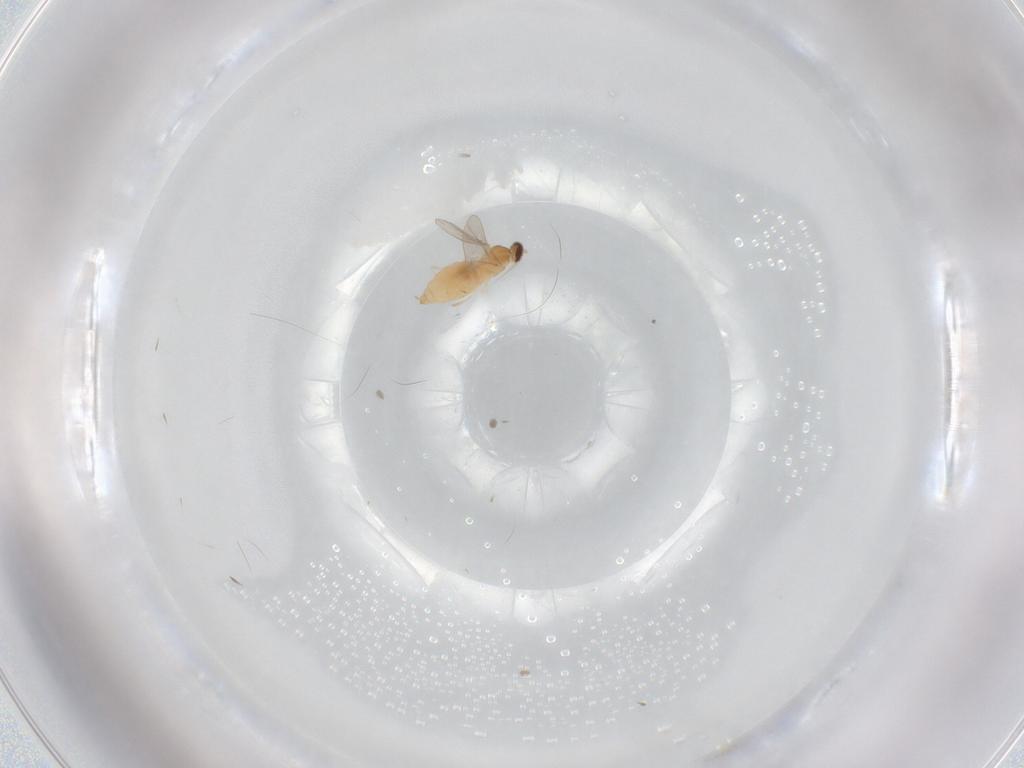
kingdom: Animalia
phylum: Arthropoda
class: Insecta
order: Diptera
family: Cecidomyiidae
